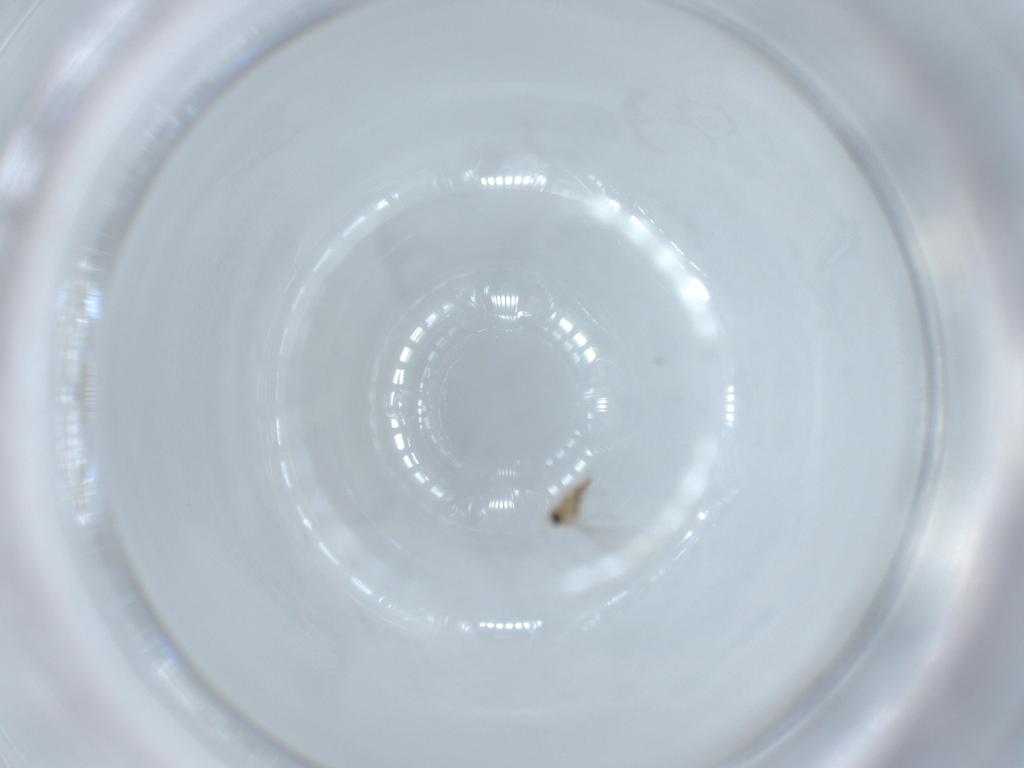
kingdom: Animalia
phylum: Arthropoda
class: Insecta
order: Diptera
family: Cecidomyiidae
